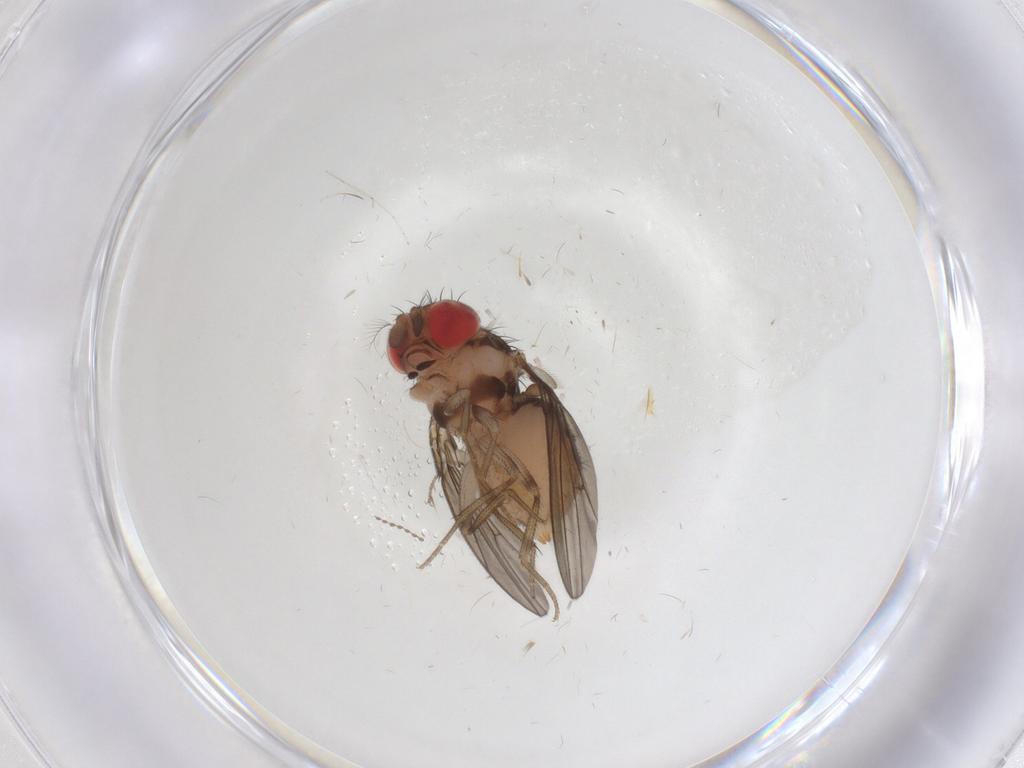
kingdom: Animalia
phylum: Arthropoda
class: Insecta
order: Diptera
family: Drosophilidae
